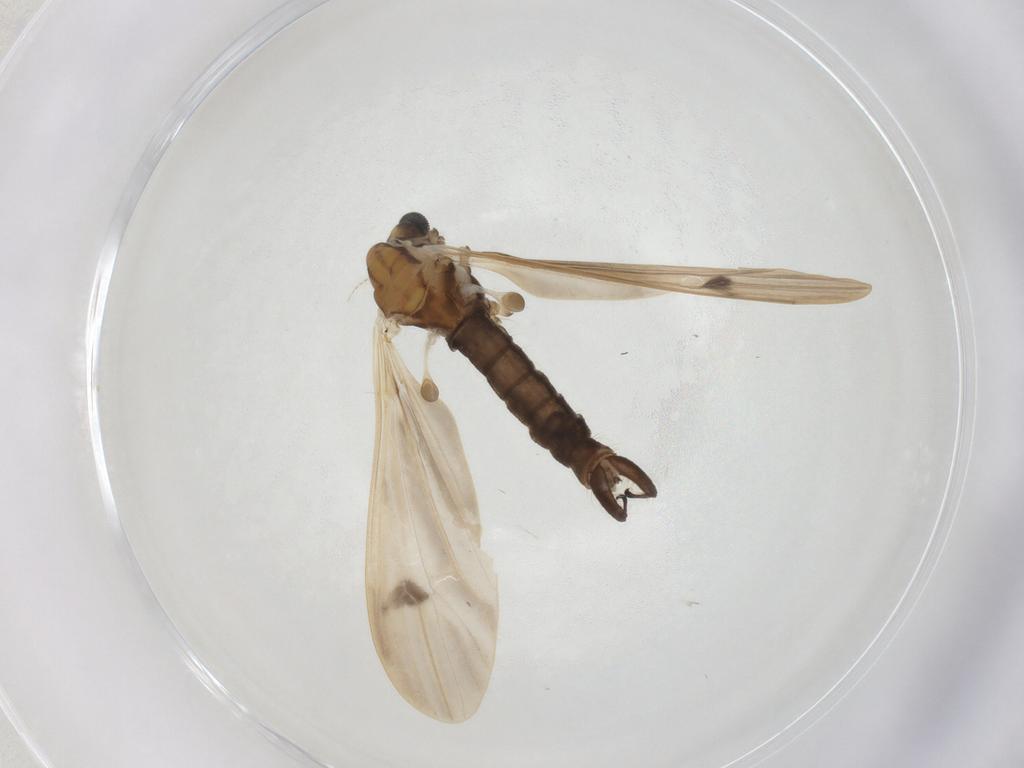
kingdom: Animalia
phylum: Arthropoda
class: Insecta
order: Diptera
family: Limoniidae
